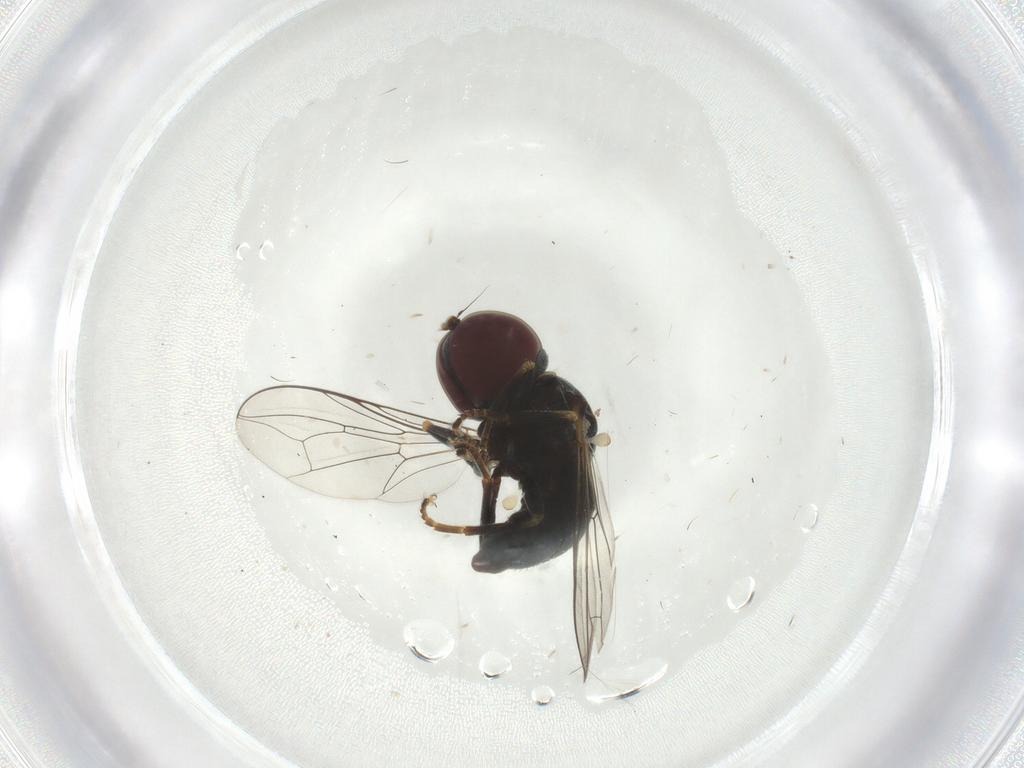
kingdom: Animalia
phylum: Arthropoda
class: Insecta
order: Diptera
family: Pipunculidae
